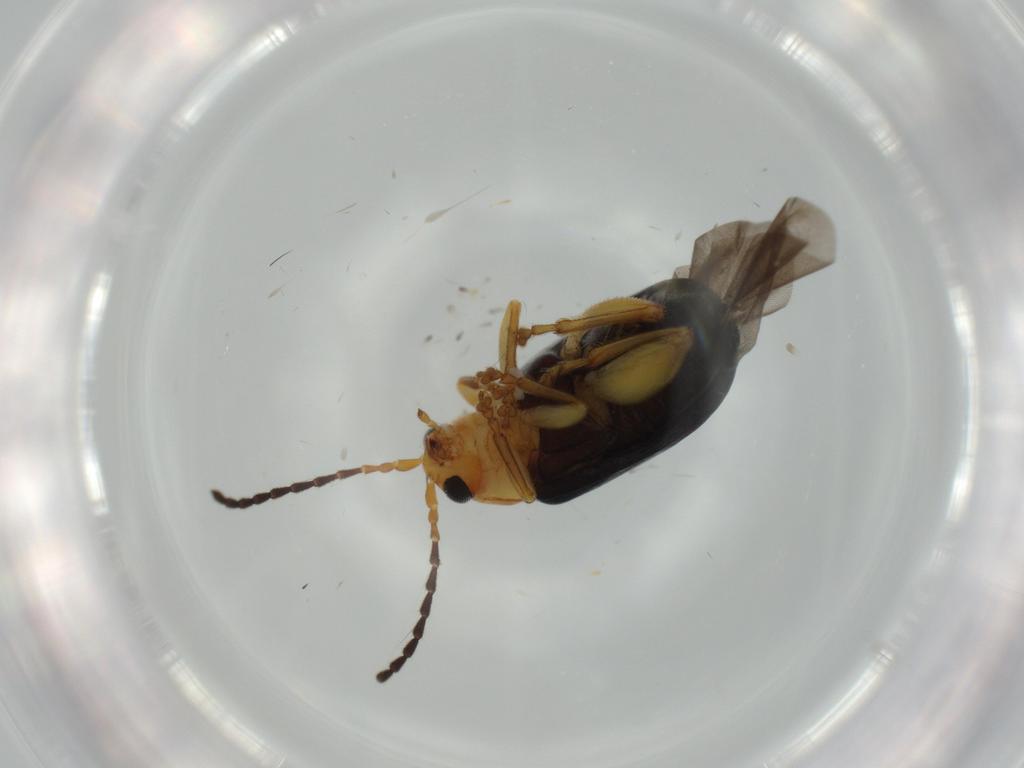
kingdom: Animalia
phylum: Arthropoda
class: Insecta
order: Coleoptera
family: Chrysomelidae
